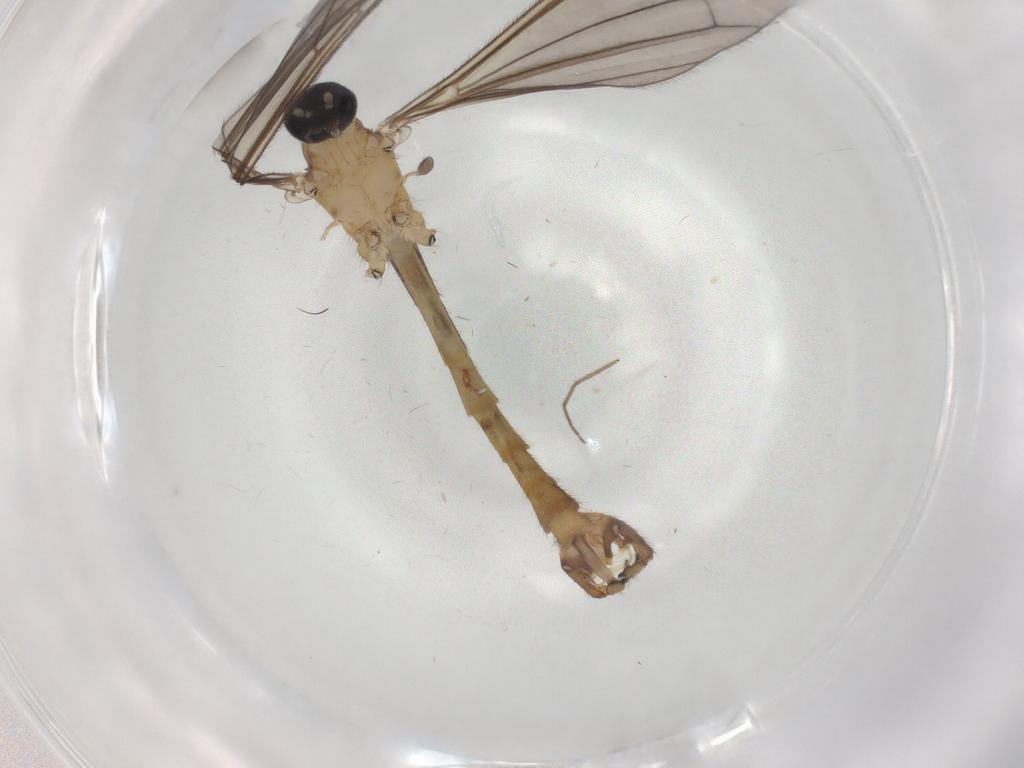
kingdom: Animalia
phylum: Arthropoda
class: Insecta
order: Diptera
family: Chironomidae
